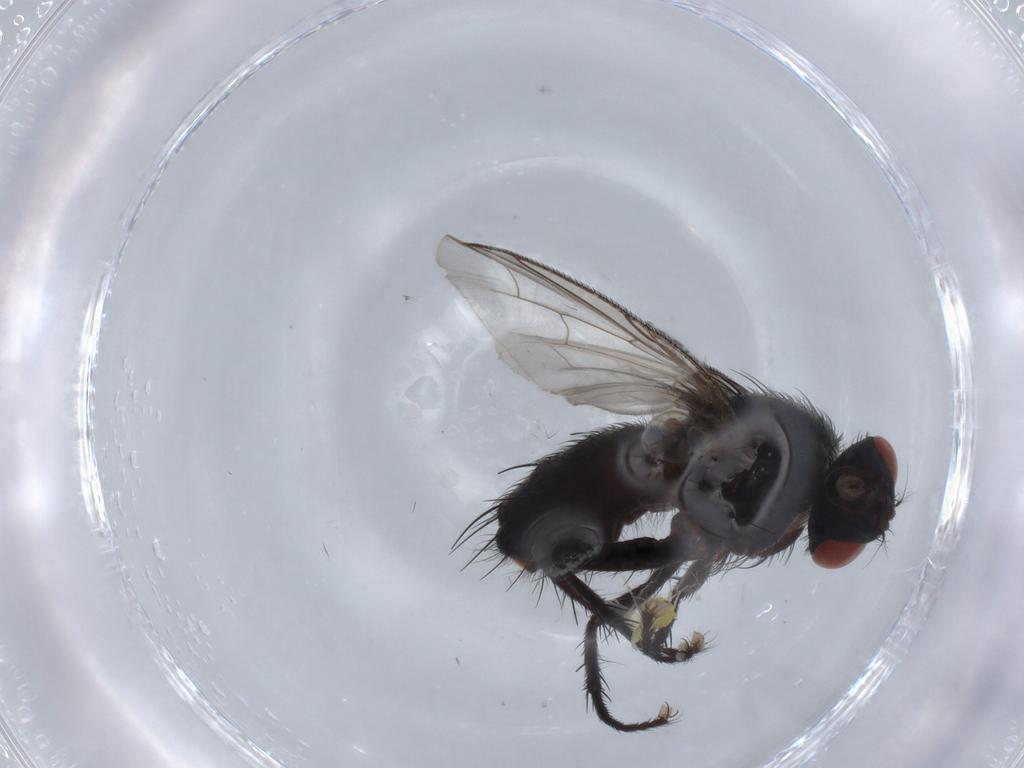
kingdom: Animalia
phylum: Arthropoda
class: Insecta
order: Diptera
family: Sarcophagidae
